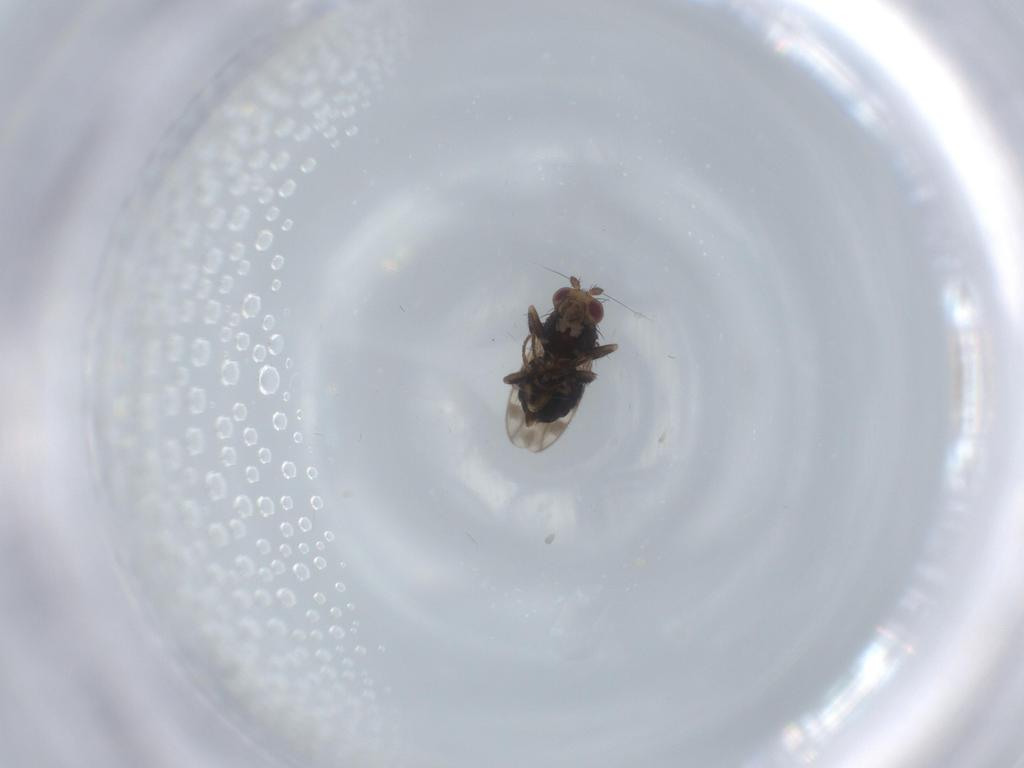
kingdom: Animalia
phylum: Arthropoda
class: Insecta
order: Diptera
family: Sphaeroceridae
